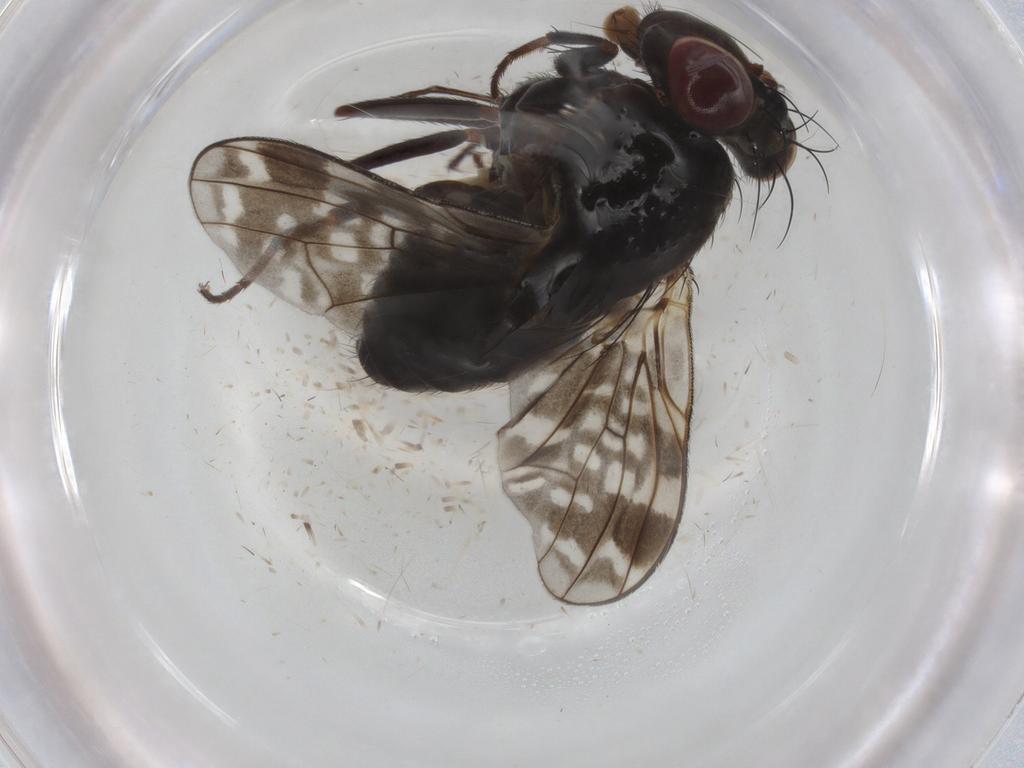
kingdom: Animalia
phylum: Arthropoda
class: Insecta
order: Diptera
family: Lauxaniidae
